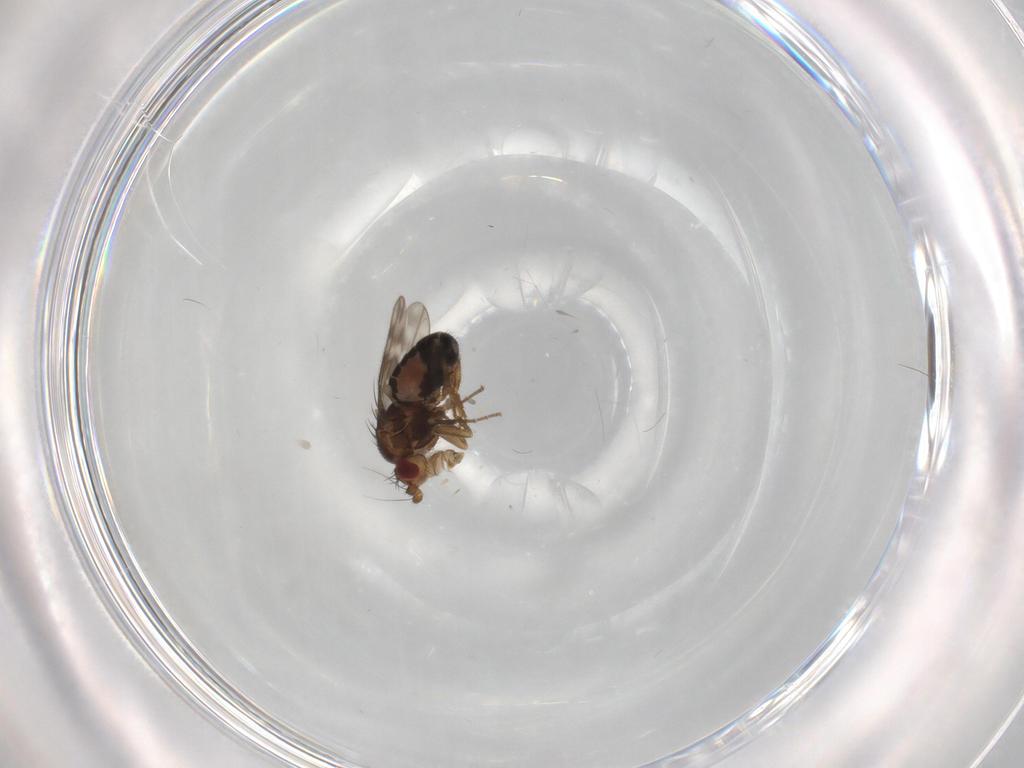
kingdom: Animalia
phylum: Arthropoda
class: Insecta
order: Diptera
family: Sphaeroceridae
